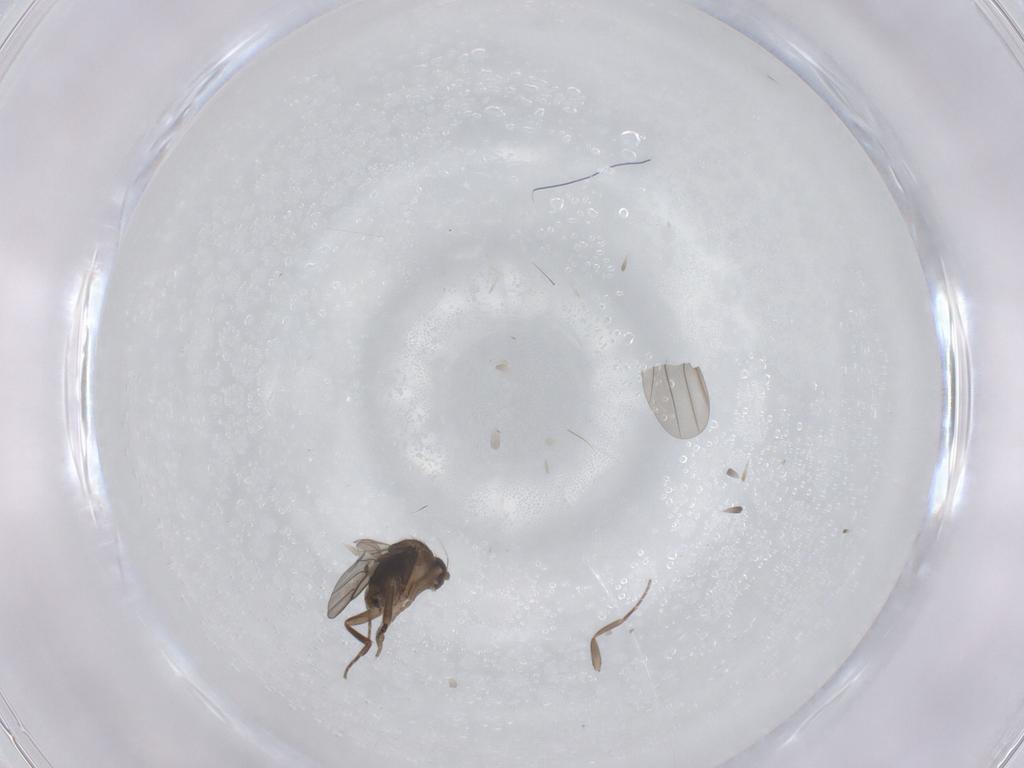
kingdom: Animalia
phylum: Arthropoda
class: Insecta
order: Diptera
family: Phoridae
